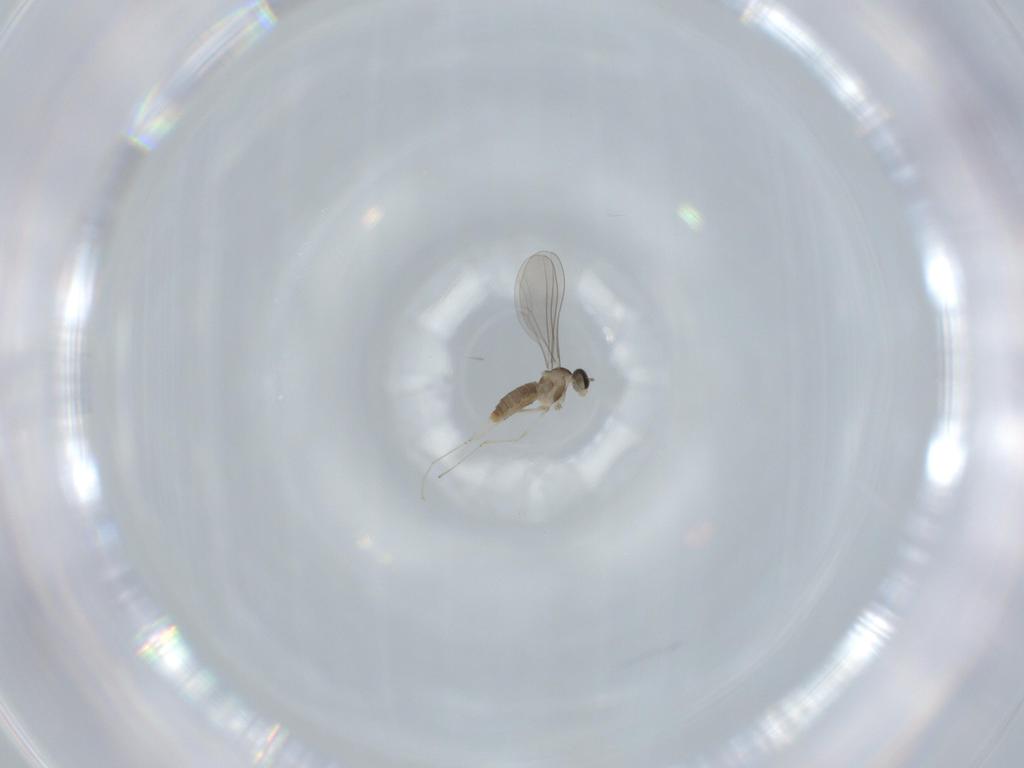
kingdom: Animalia
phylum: Arthropoda
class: Insecta
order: Diptera
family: Cecidomyiidae
